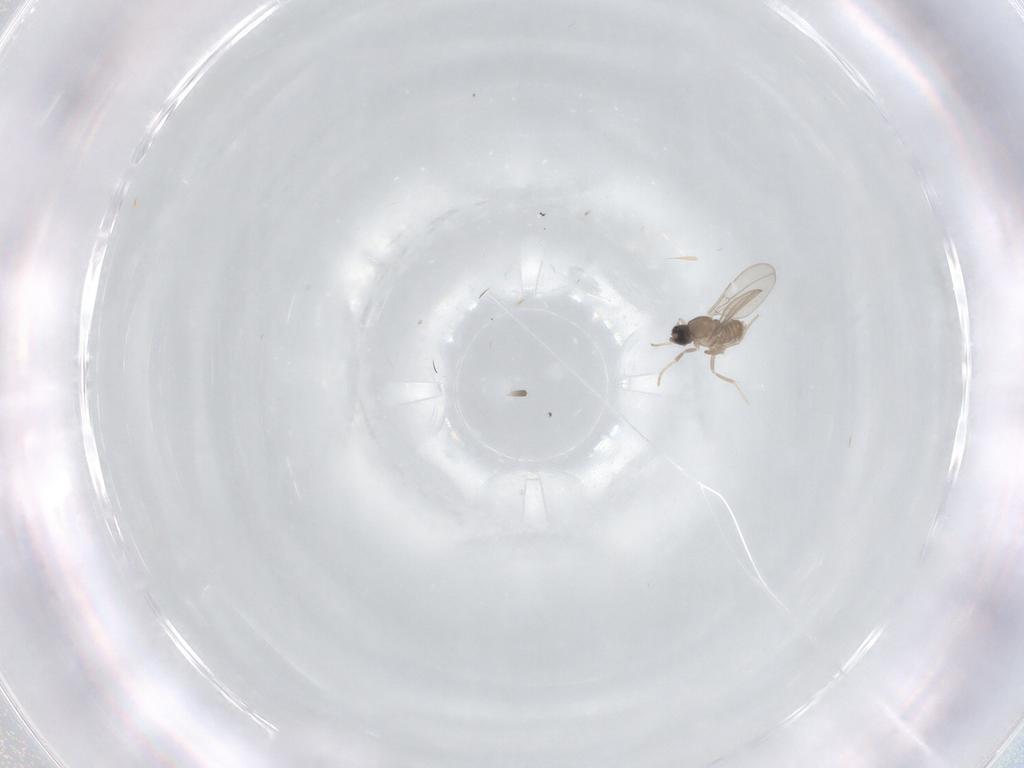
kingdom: Animalia
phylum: Arthropoda
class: Insecta
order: Diptera
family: Cecidomyiidae
